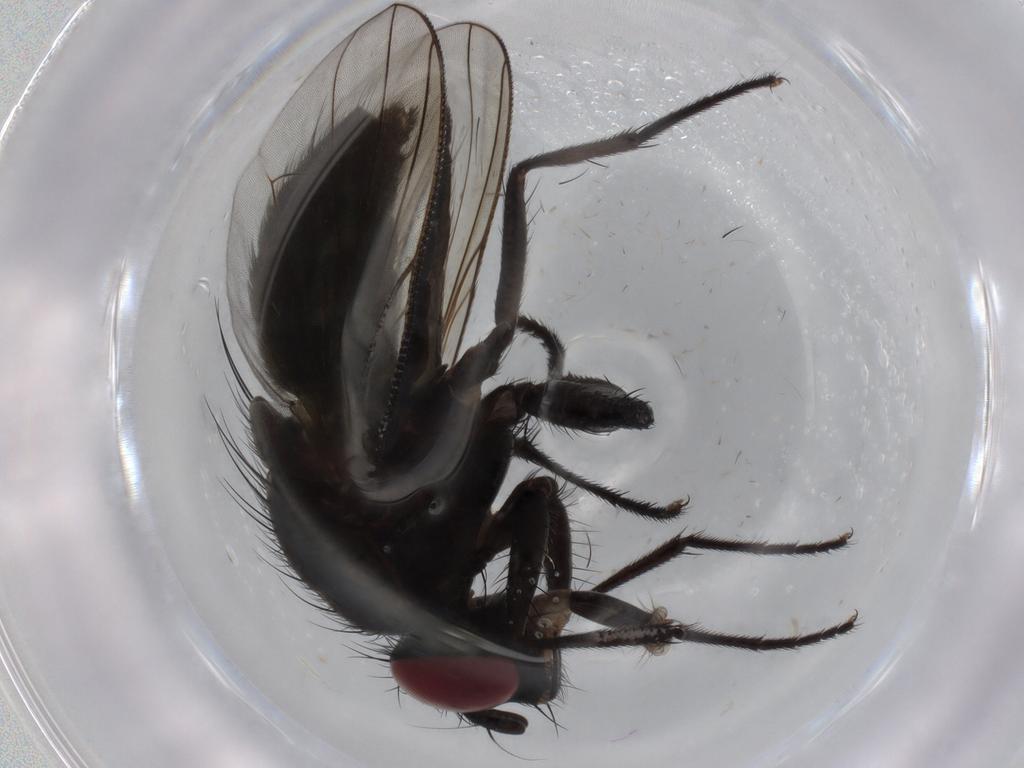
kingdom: Animalia
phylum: Arthropoda
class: Insecta
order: Diptera
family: Muscidae
